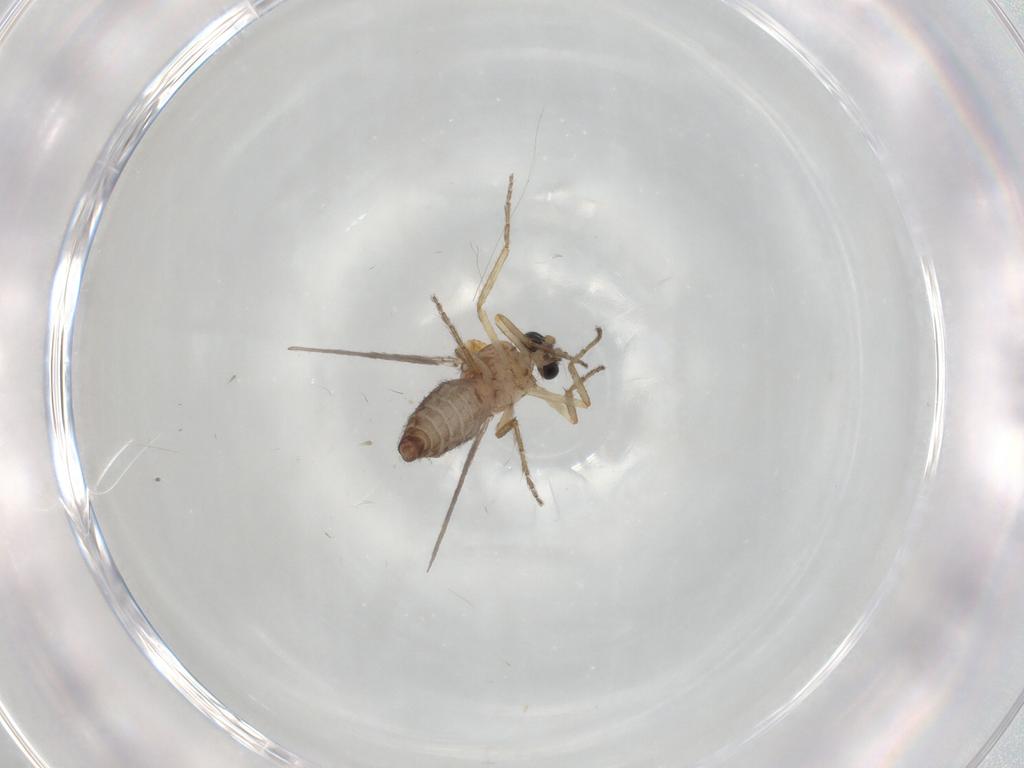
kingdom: Animalia
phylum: Arthropoda
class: Insecta
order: Diptera
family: Ceratopogonidae
